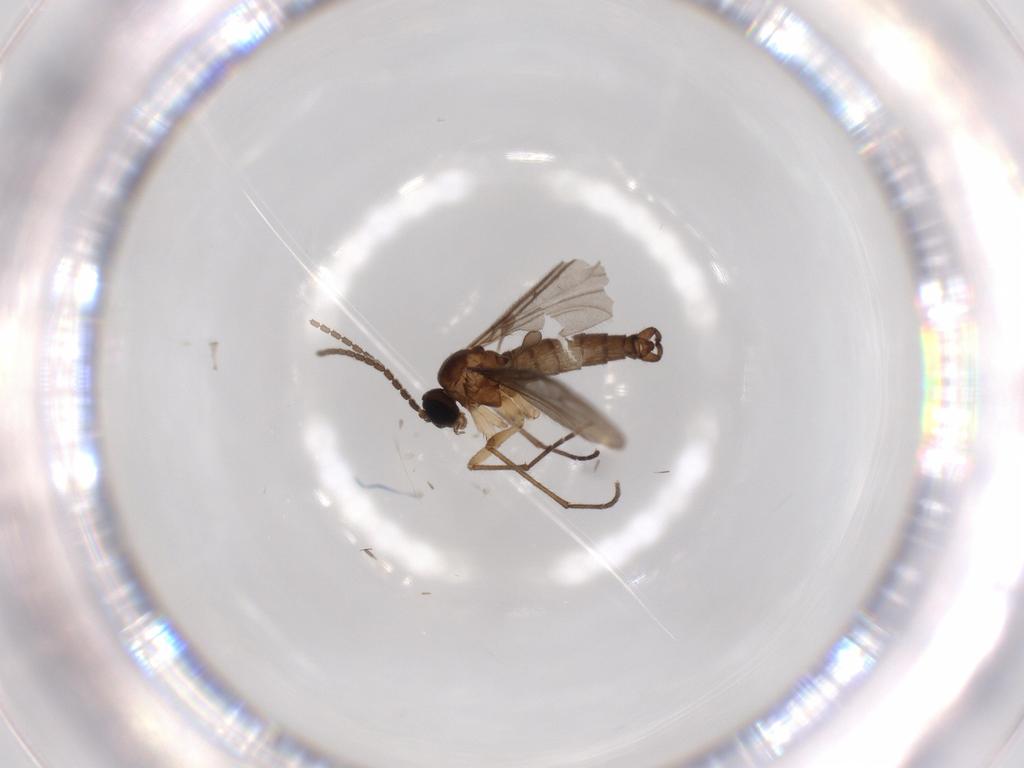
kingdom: Animalia
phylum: Arthropoda
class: Insecta
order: Diptera
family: Sciaridae
